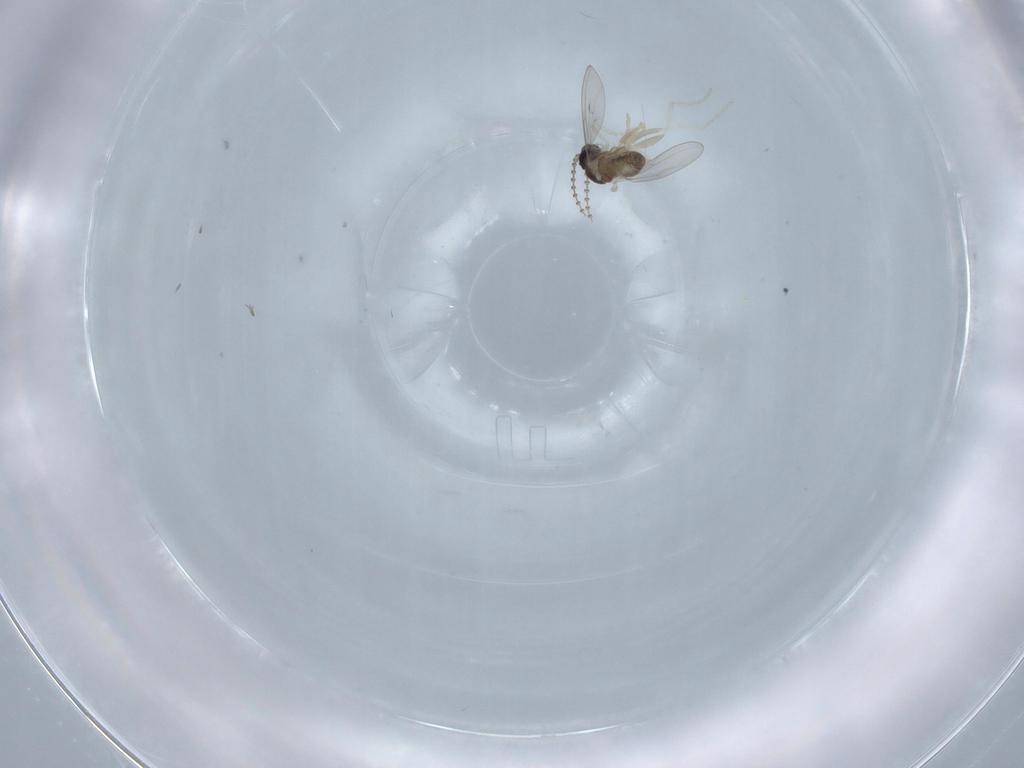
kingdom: Animalia
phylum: Arthropoda
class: Insecta
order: Diptera
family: Cecidomyiidae
